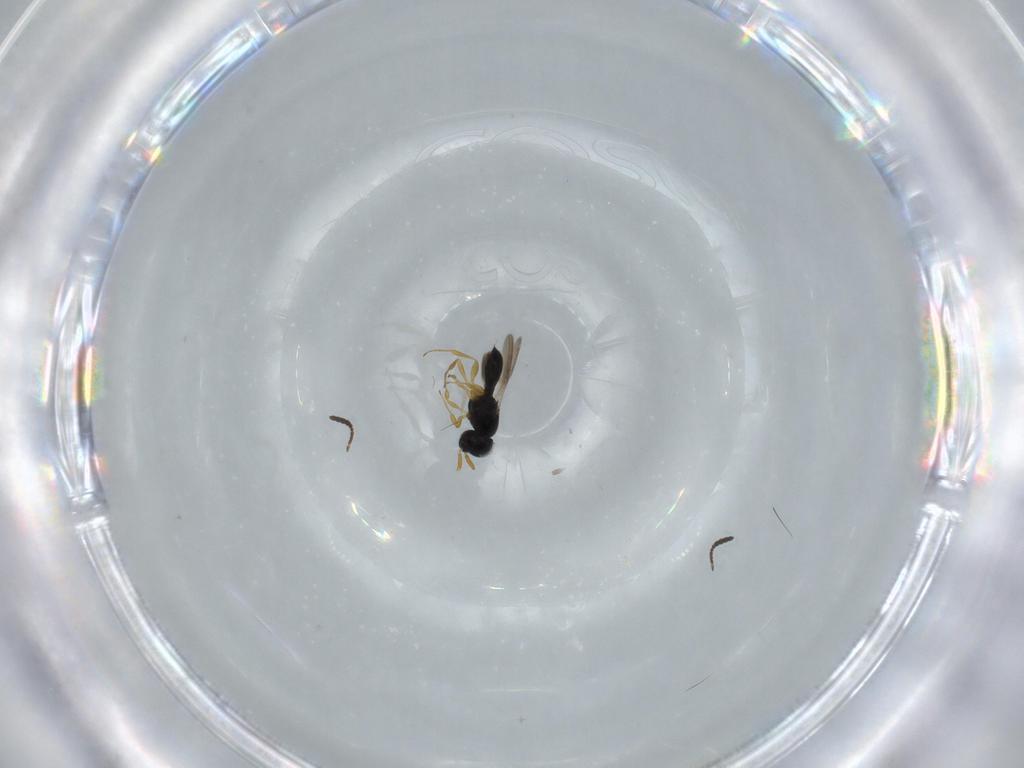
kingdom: Animalia
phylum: Arthropoda
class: Insecta
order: Hymenoptera
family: Scelionidae
